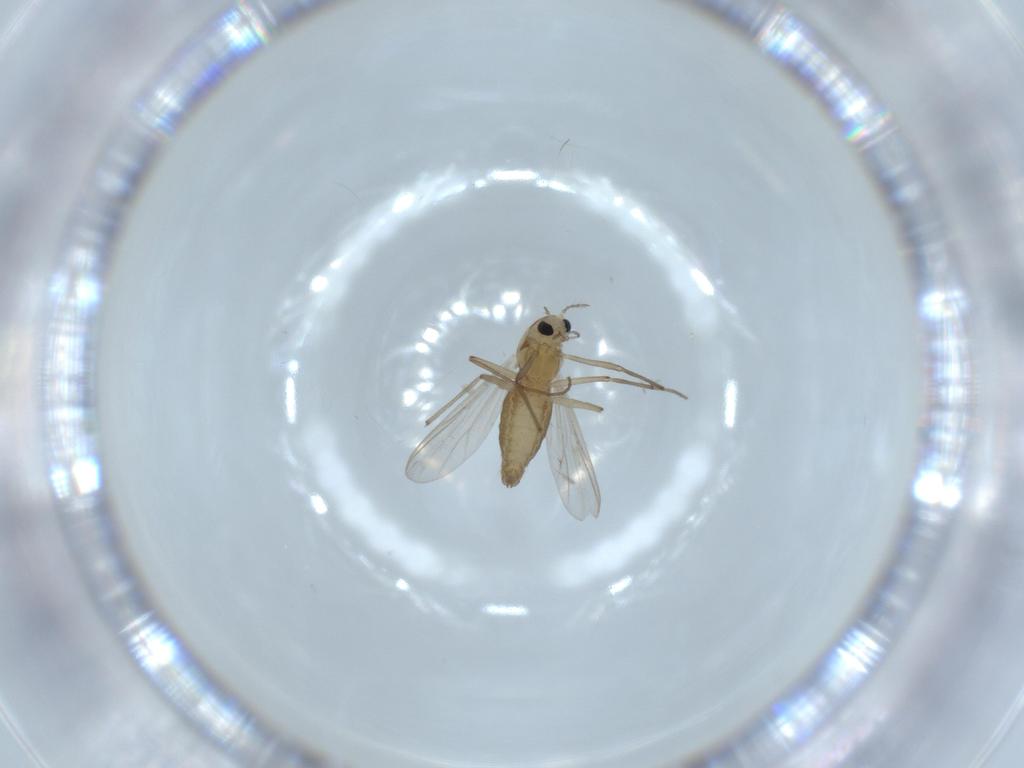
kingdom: Animalia
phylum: Arthropoda
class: Insecta
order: Diptera
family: Chironomidae
